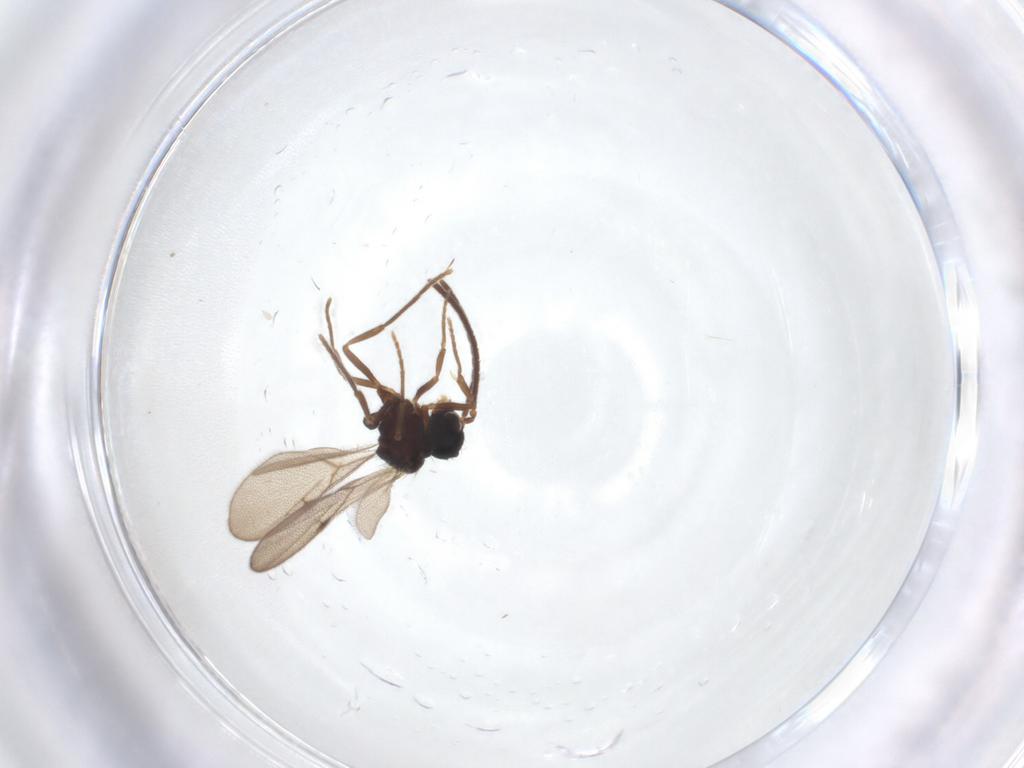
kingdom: Animalia
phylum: Arthropoda
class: Insecta
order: Hymenoptera
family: Formicidae
